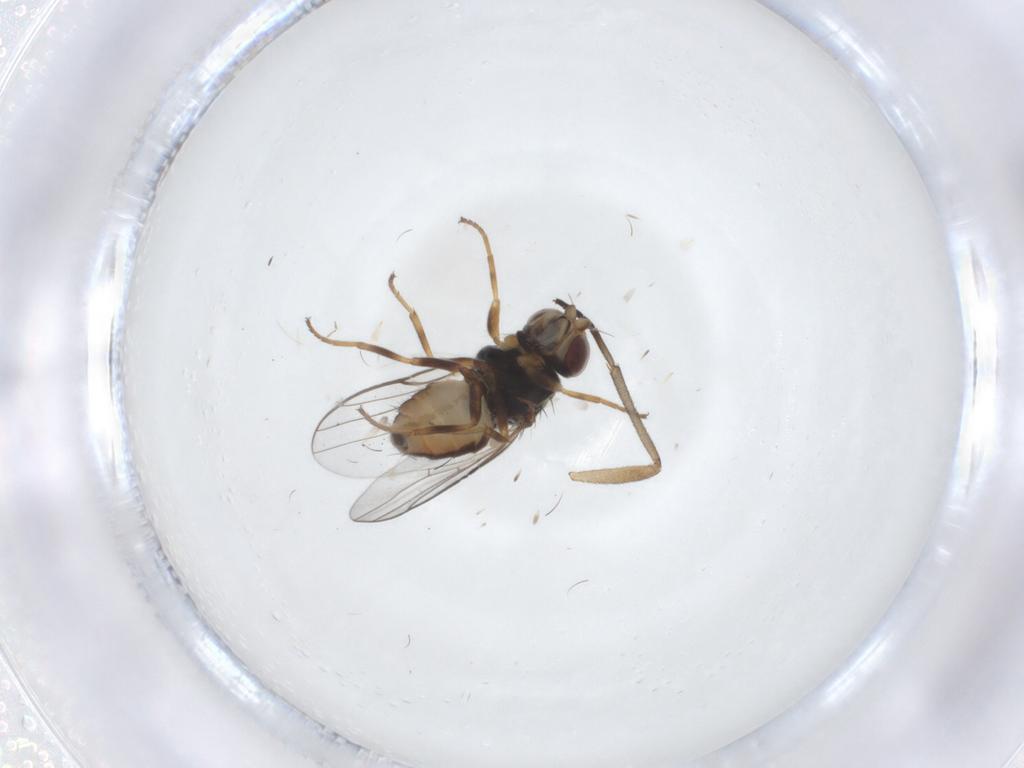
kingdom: Animalia
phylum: Arthropoda
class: Insecta
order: Diptera
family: Chloropidae
